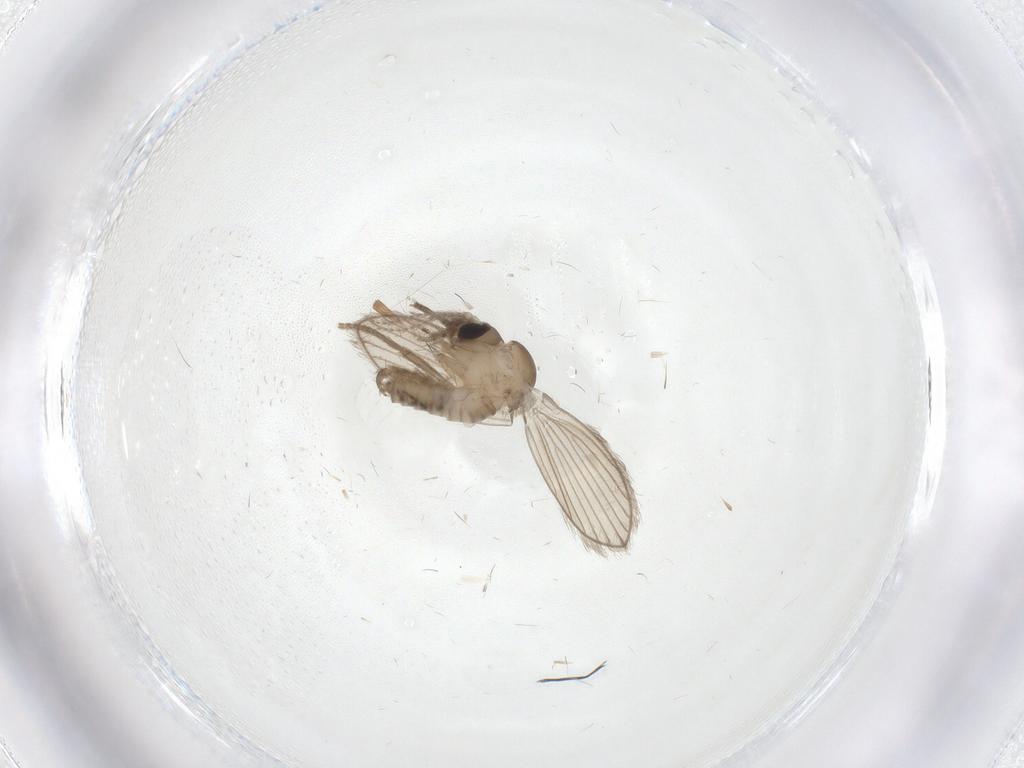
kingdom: Animalia
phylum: Arthropoda
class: Insecta
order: Diptera
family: Psychodidae
